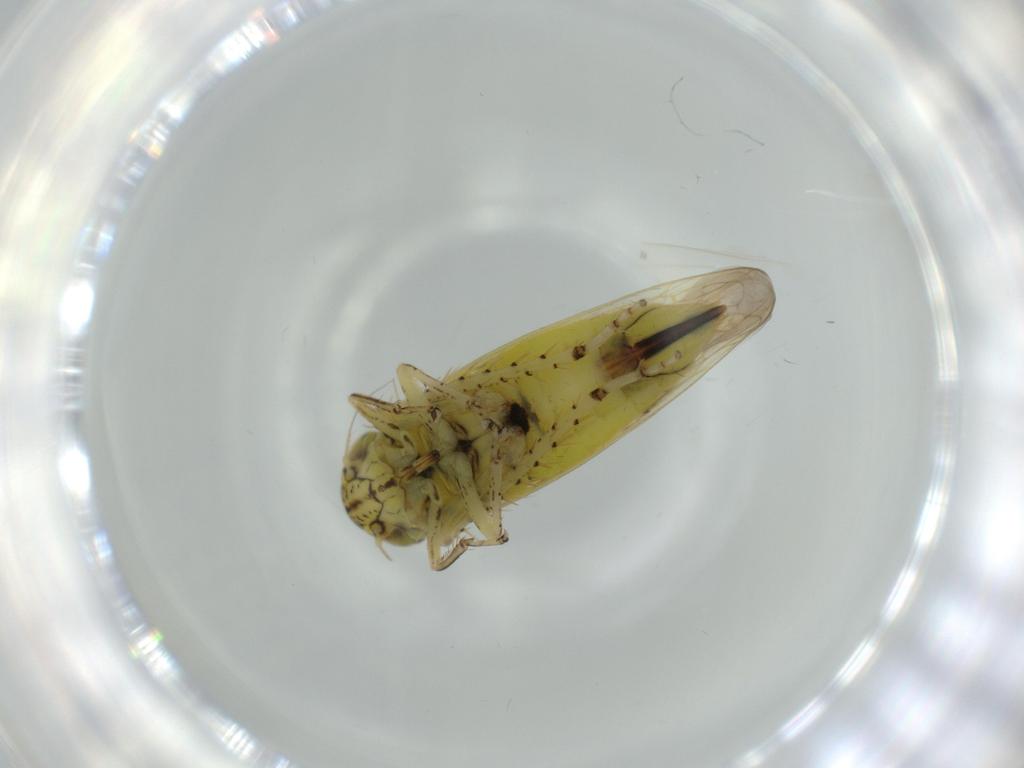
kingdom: Animalia
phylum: Arthropoda
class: Insecta
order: Hemiptera
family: Cicadellidae
